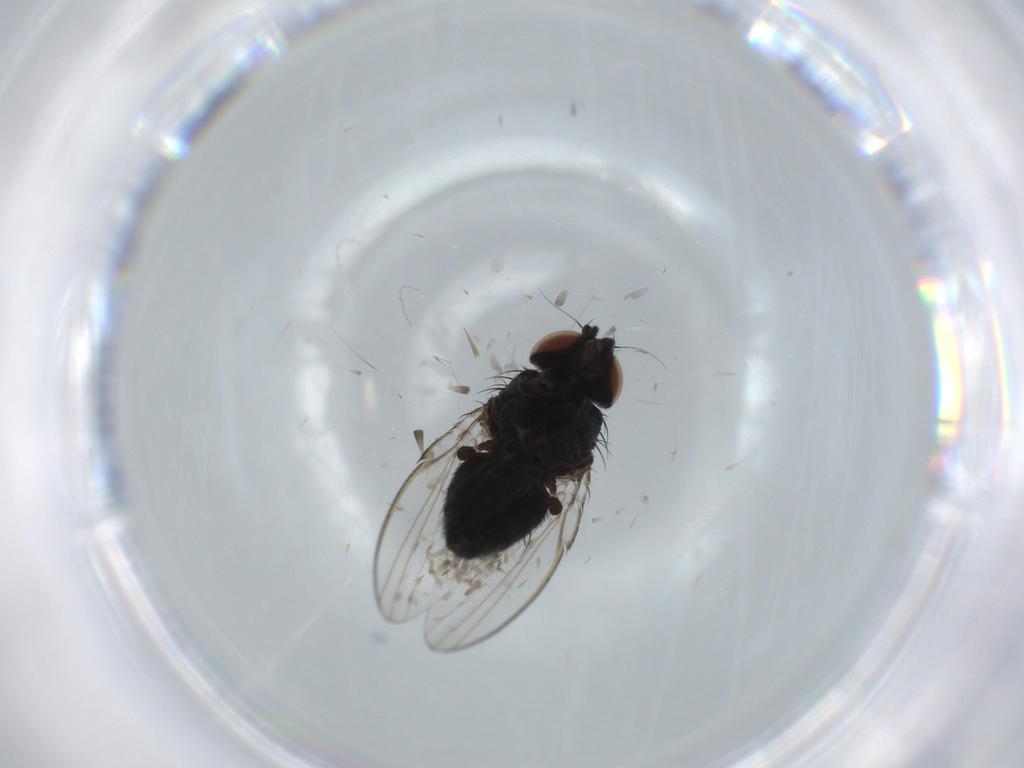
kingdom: Animalia
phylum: Arthropoda
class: Insecta
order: Diptera
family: Milichiidae
